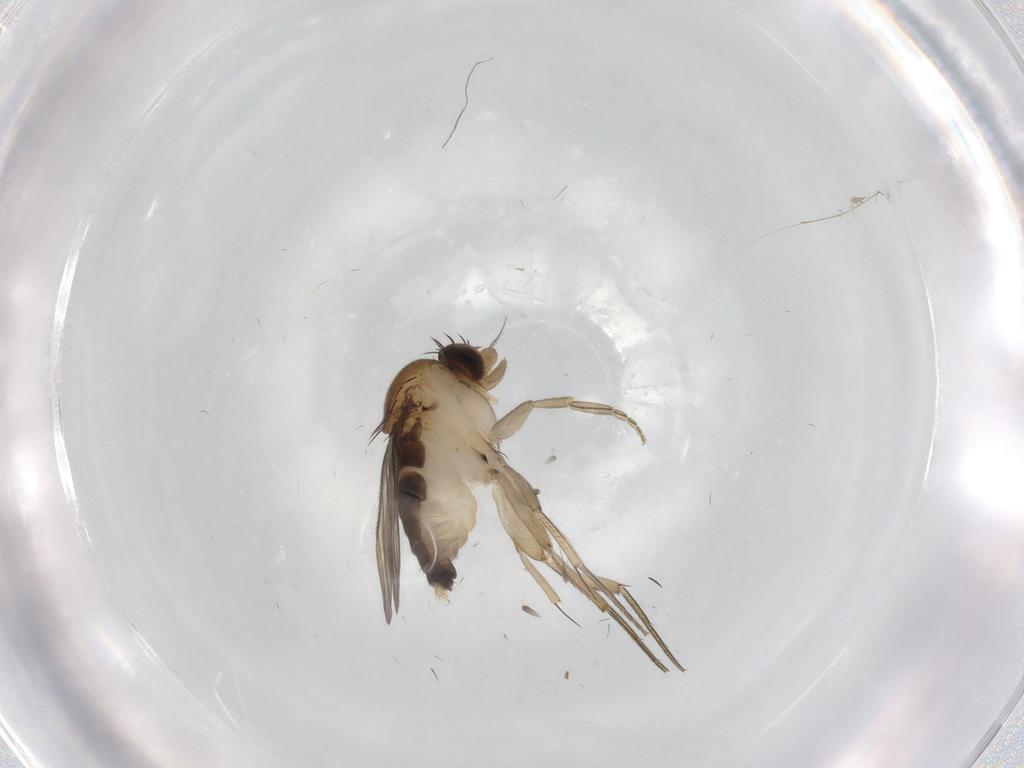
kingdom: Animalia
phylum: Arthropoda
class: Insecta
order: Diptera
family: Phoridae
